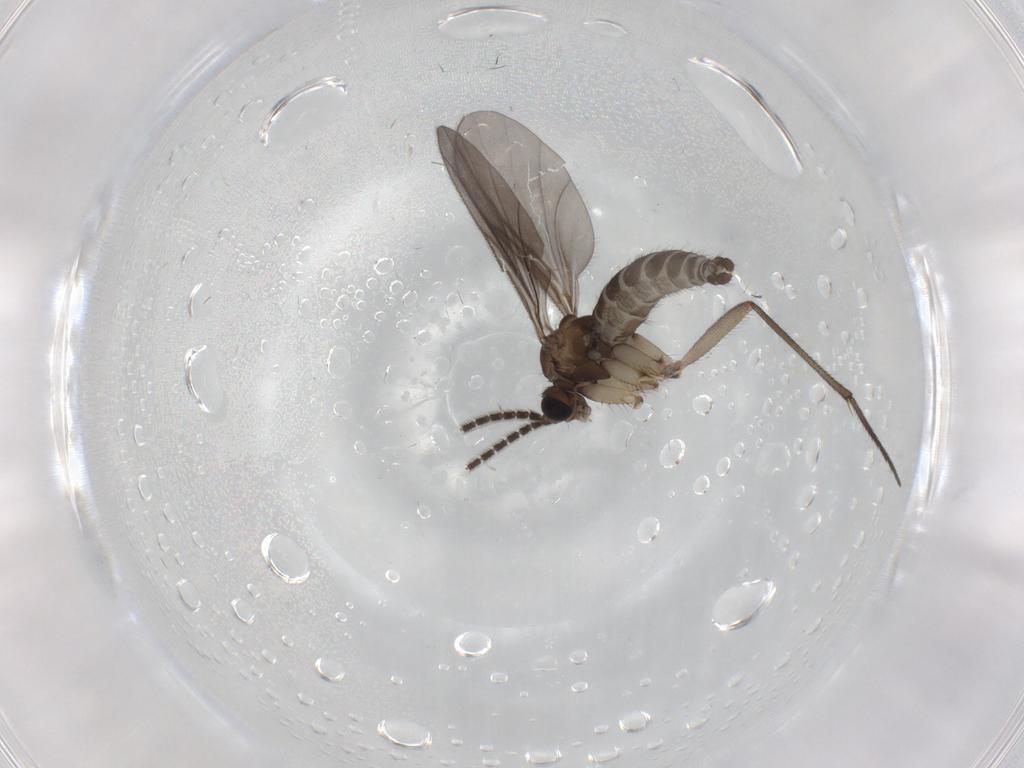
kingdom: Animalia
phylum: Arthropoda
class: Insecta
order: Diptera
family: Sciaridae
